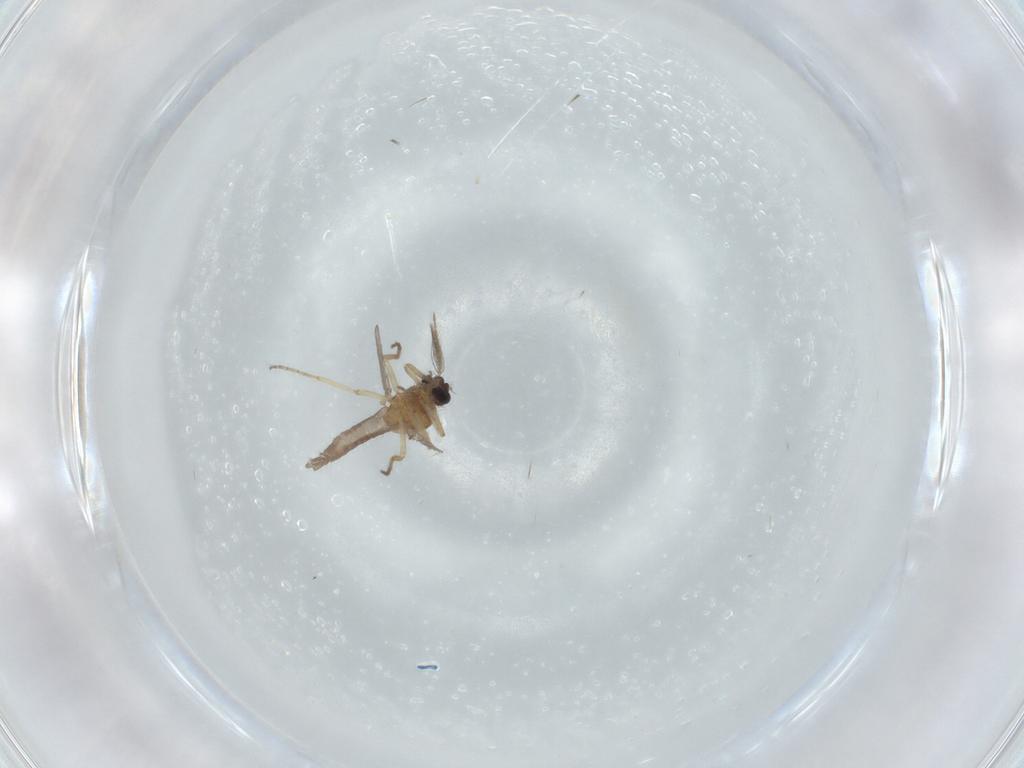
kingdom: Animalia
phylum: Arthropoda
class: Insecta
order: Diptera
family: Ceratopogonidae
